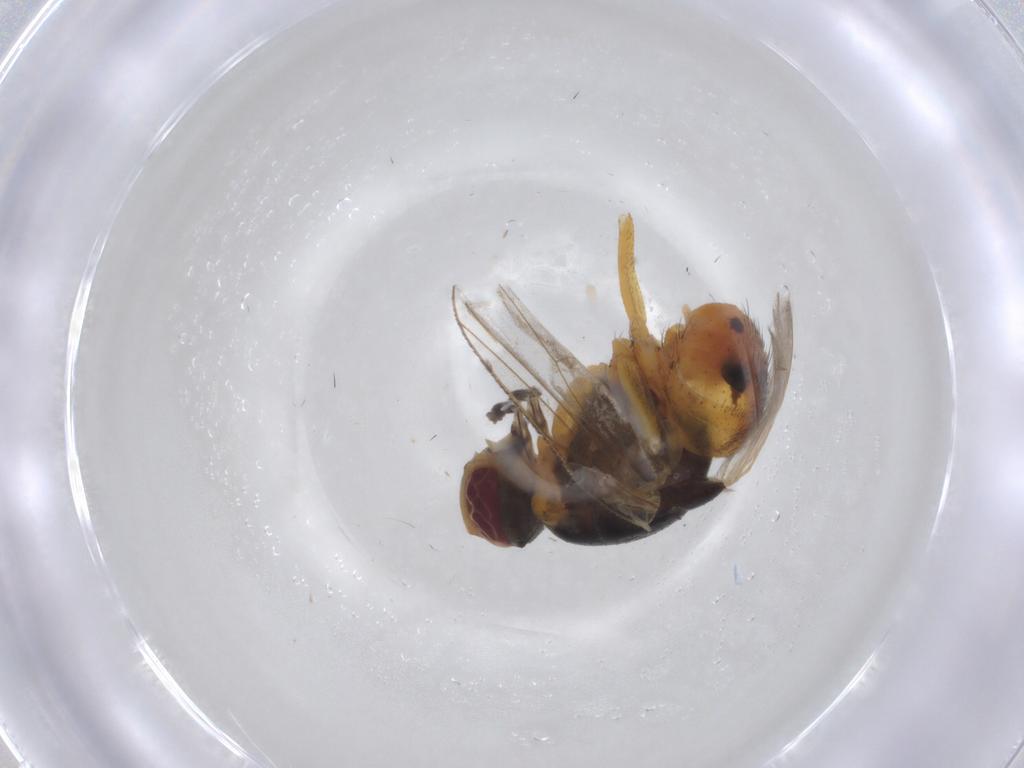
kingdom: Animalia
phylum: Arthropoda
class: Insecta
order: Diptera
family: Muscidae
